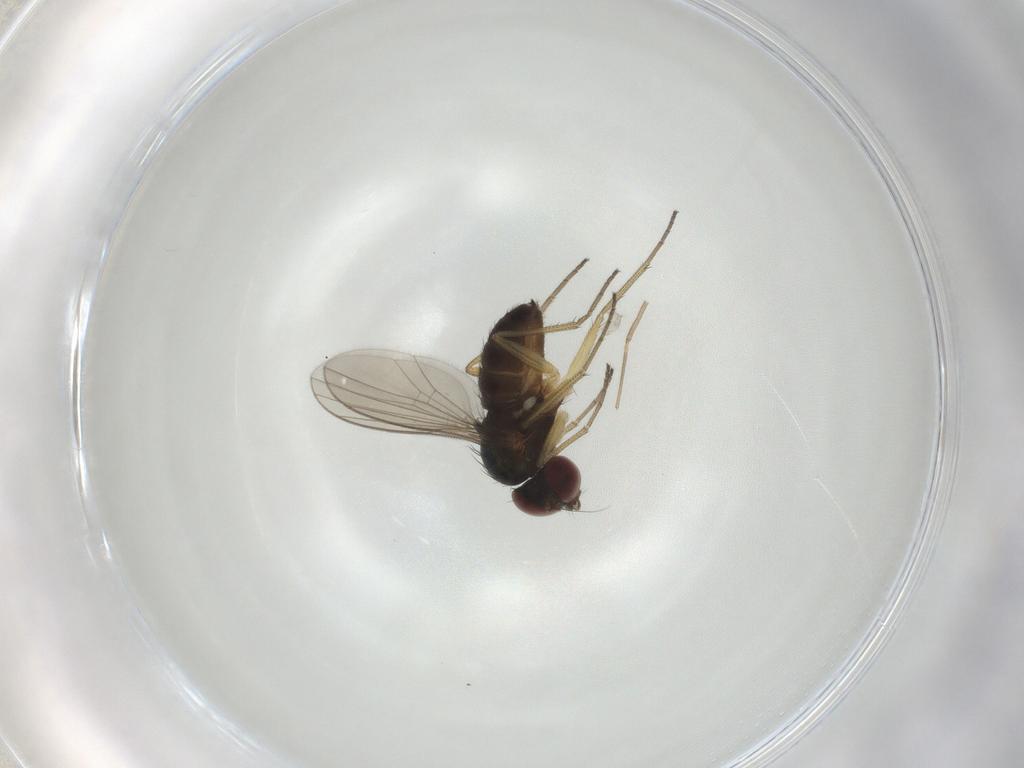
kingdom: Animalia
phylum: Arthropoda
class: Insecta
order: Diptera
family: Dolichopodidae
